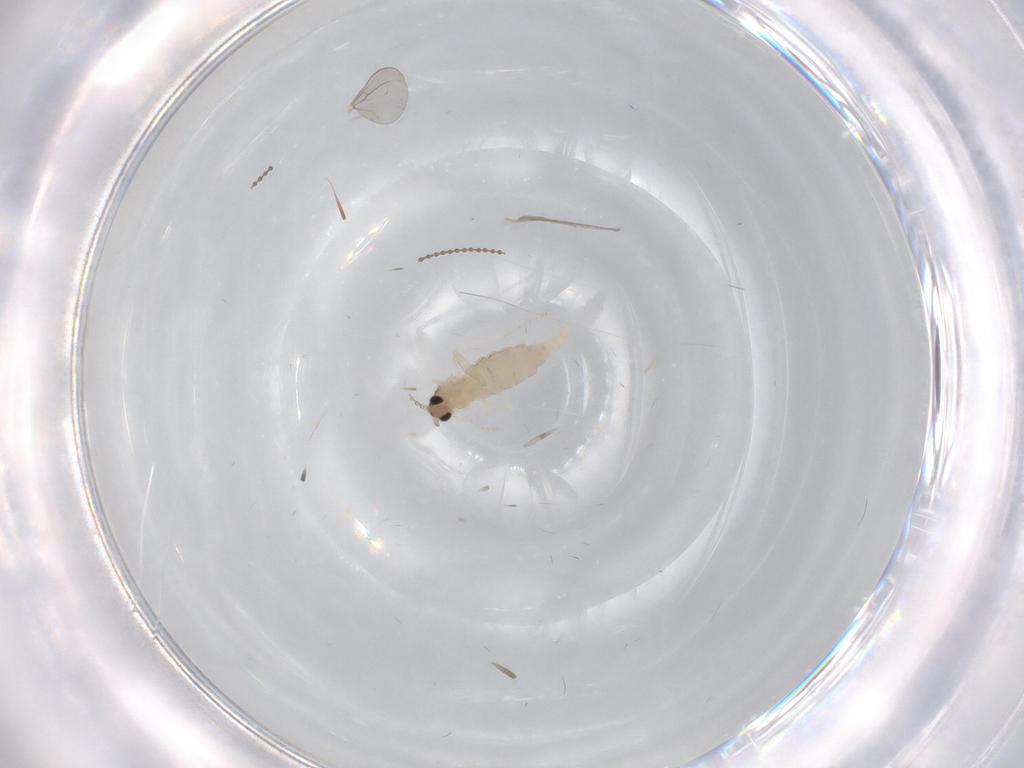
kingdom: Animalia
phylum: Arthropoda
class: Insecta
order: Diptera
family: Cecidomyiidae
